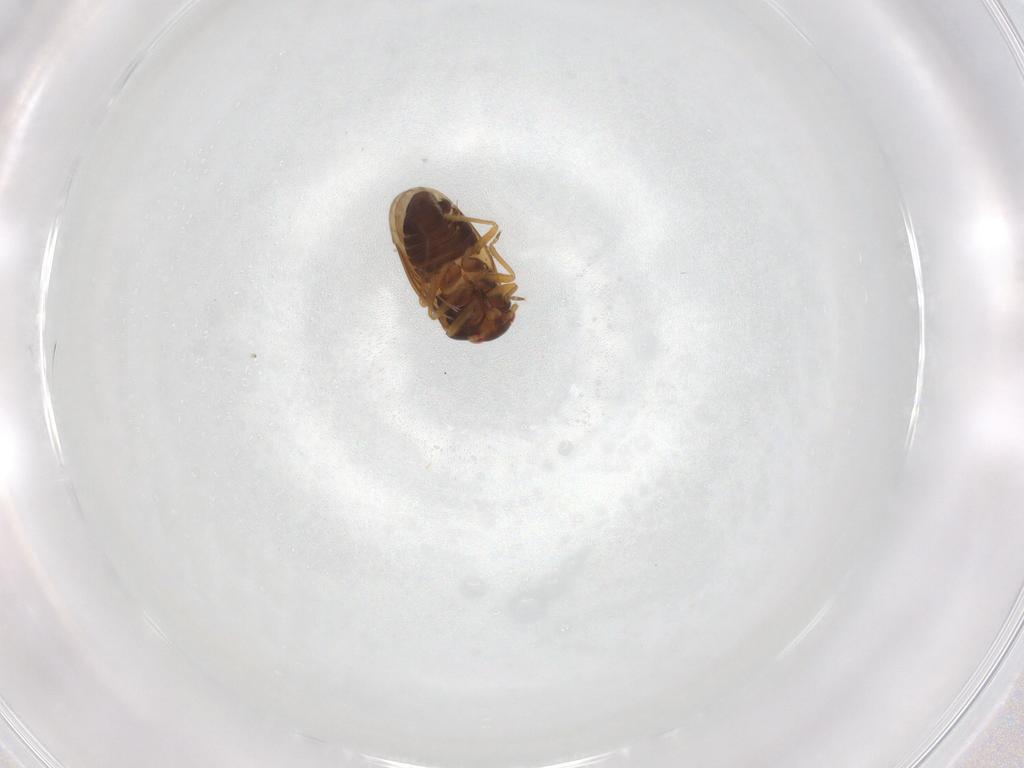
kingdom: Animalia
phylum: Arthropoda
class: Insecta
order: Hemiptera
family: Schizopteridae
